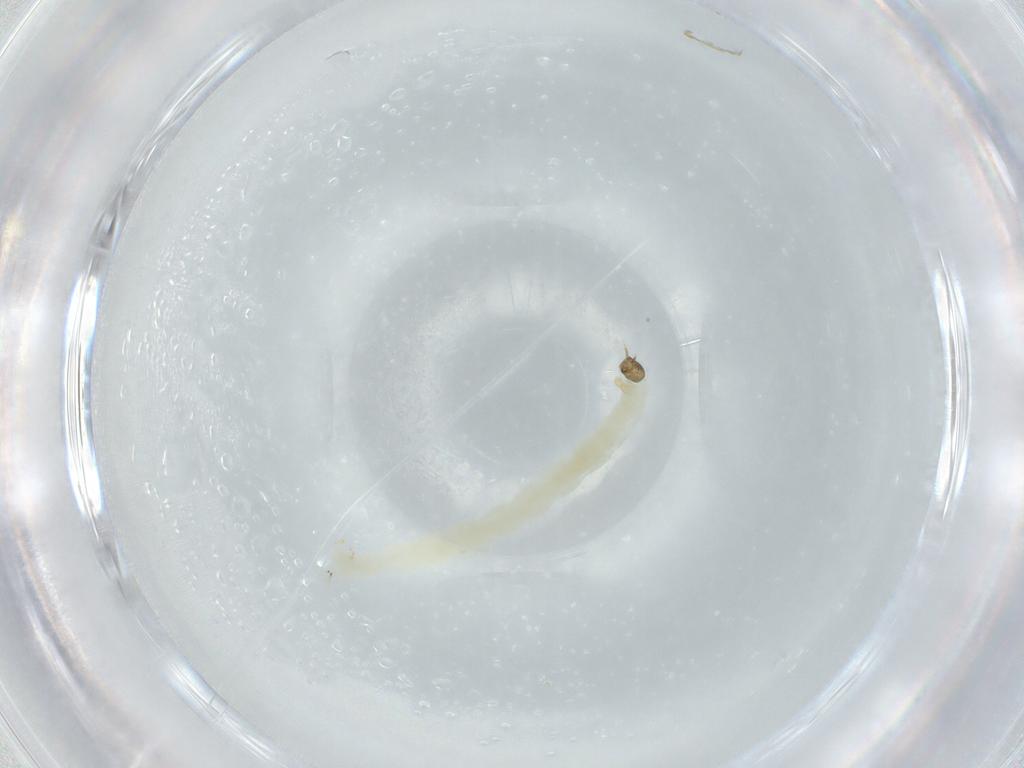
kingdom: Animalia
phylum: Arthropoda
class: Insecta
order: Diptera
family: Chironomidae
